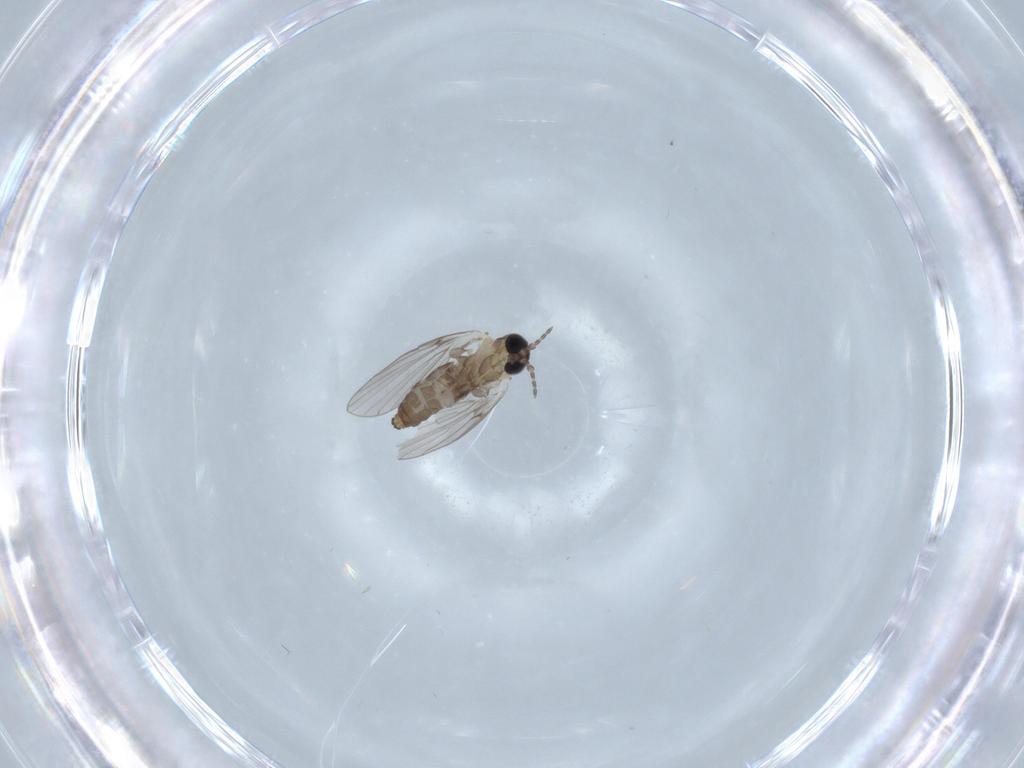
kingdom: Animalia
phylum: Arthropoda
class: Insecta
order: Diptera
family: Psychodidae
